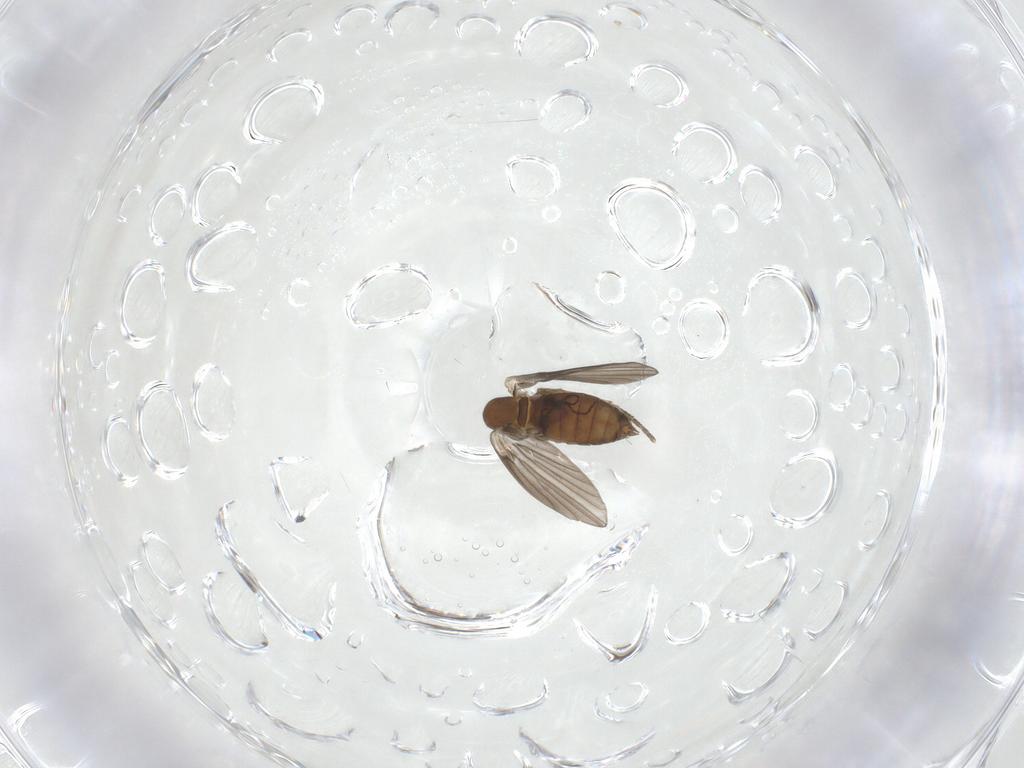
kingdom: Animalia
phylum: Arthropoda
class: Insecta
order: Diptera
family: Psychodidae
